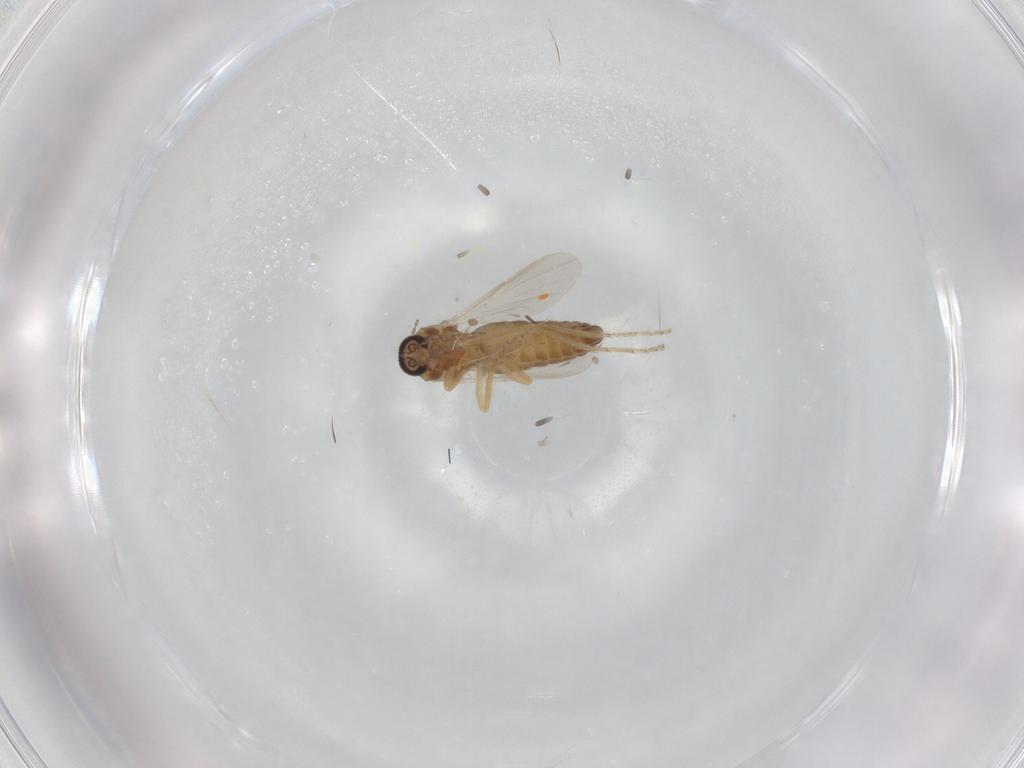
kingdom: Animalia
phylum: Arthropoda
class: Insecta
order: Diptera
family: Ceratopogonidae
